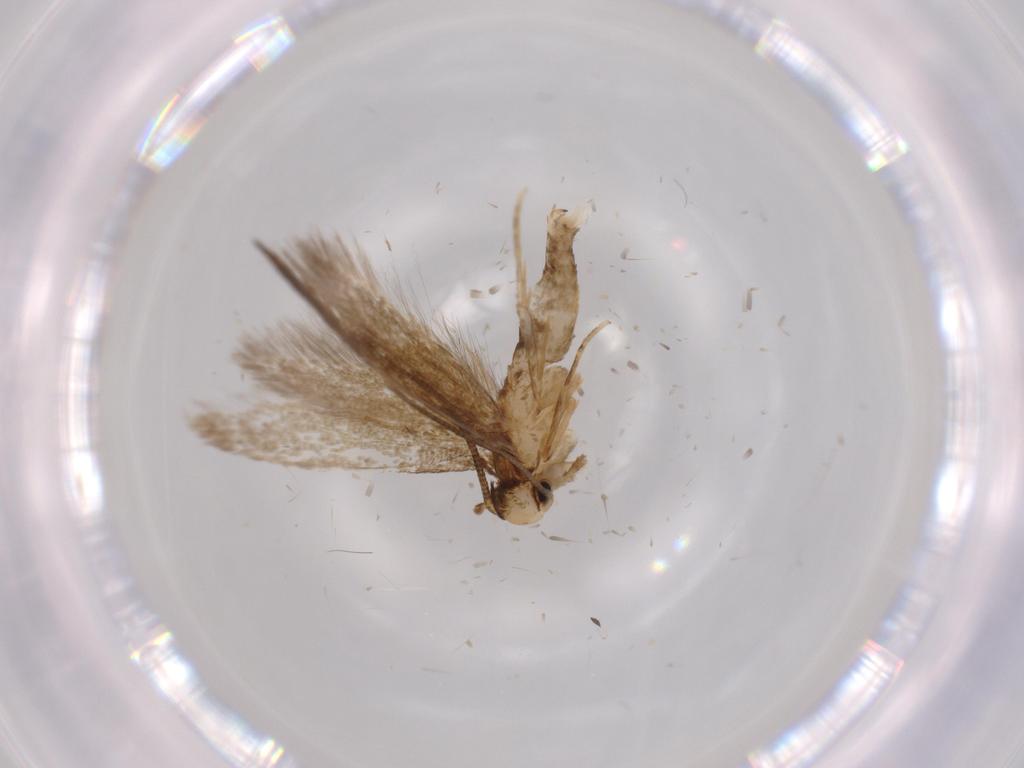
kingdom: Animalia
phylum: Arthropoda
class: Insecta
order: Lepidoptera
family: Tineidae
